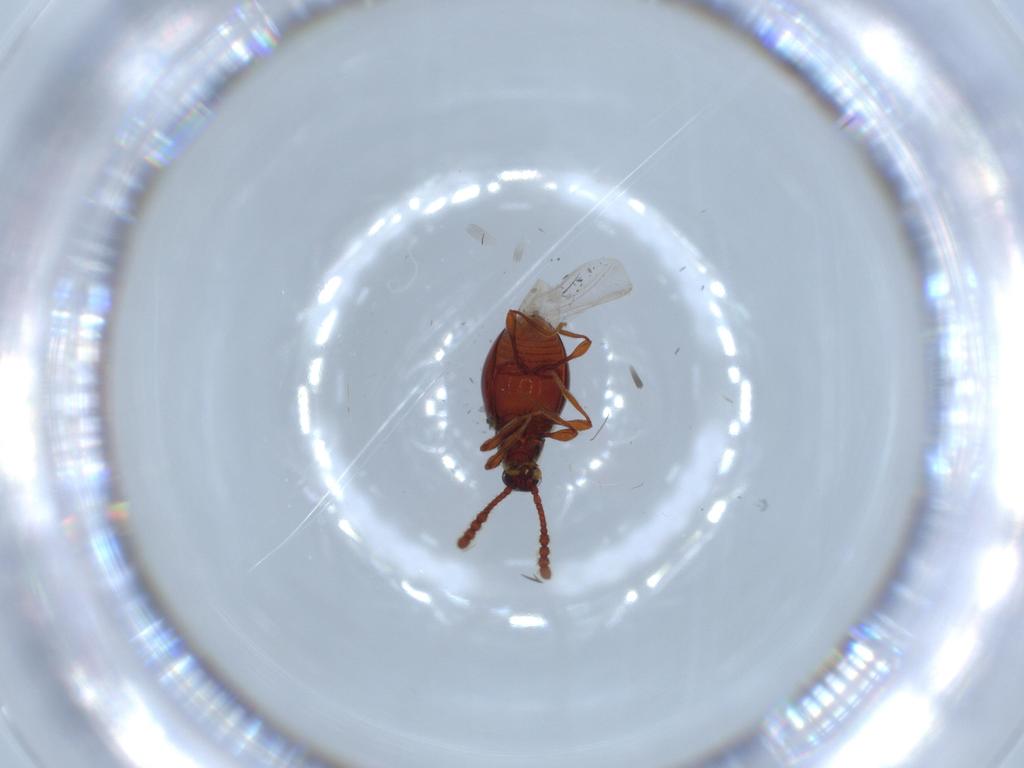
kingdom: Animalia
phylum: Arthropoda
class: Insecta
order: Coleoptera
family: Staphylinidae
